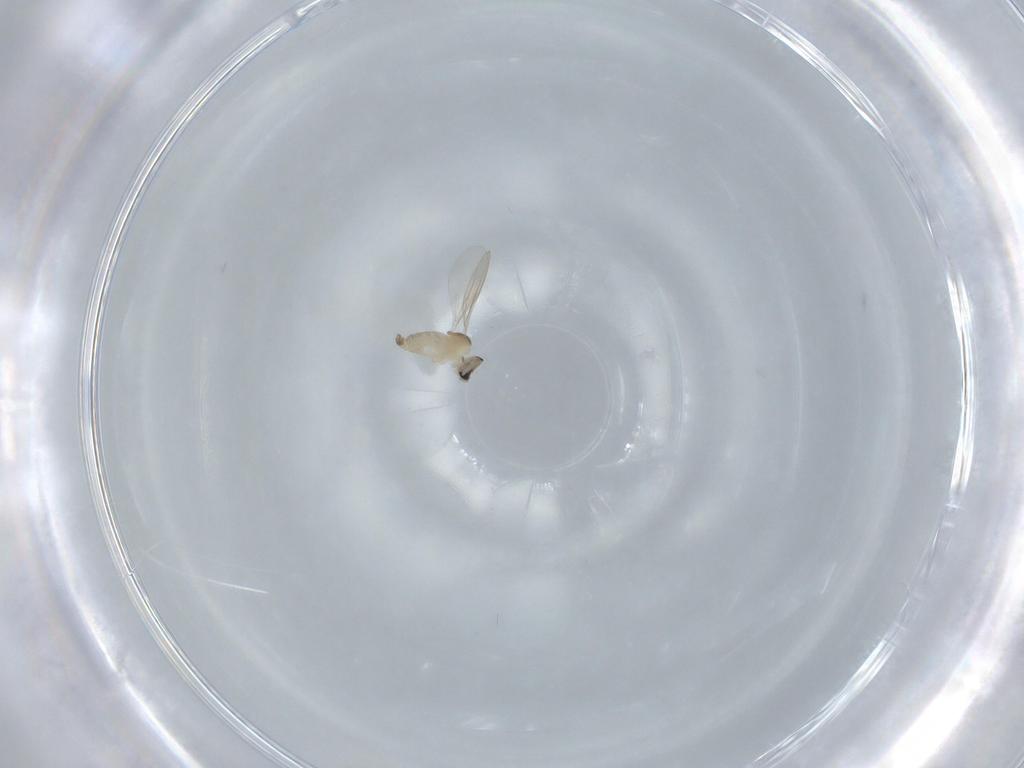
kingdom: Animalia
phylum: Arthropoda
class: Insecta
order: Diptera
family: Cecidomyiidae
